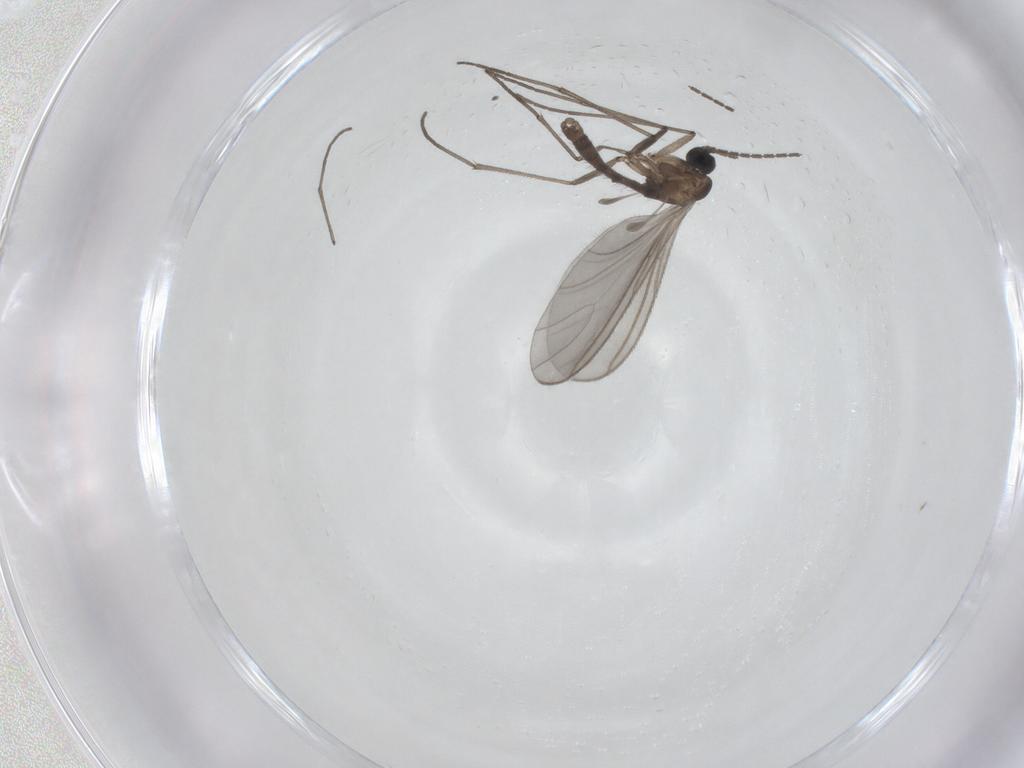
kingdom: Animalia
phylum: Arthropoda
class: Insecta
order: Diptera
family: Sciaridae
